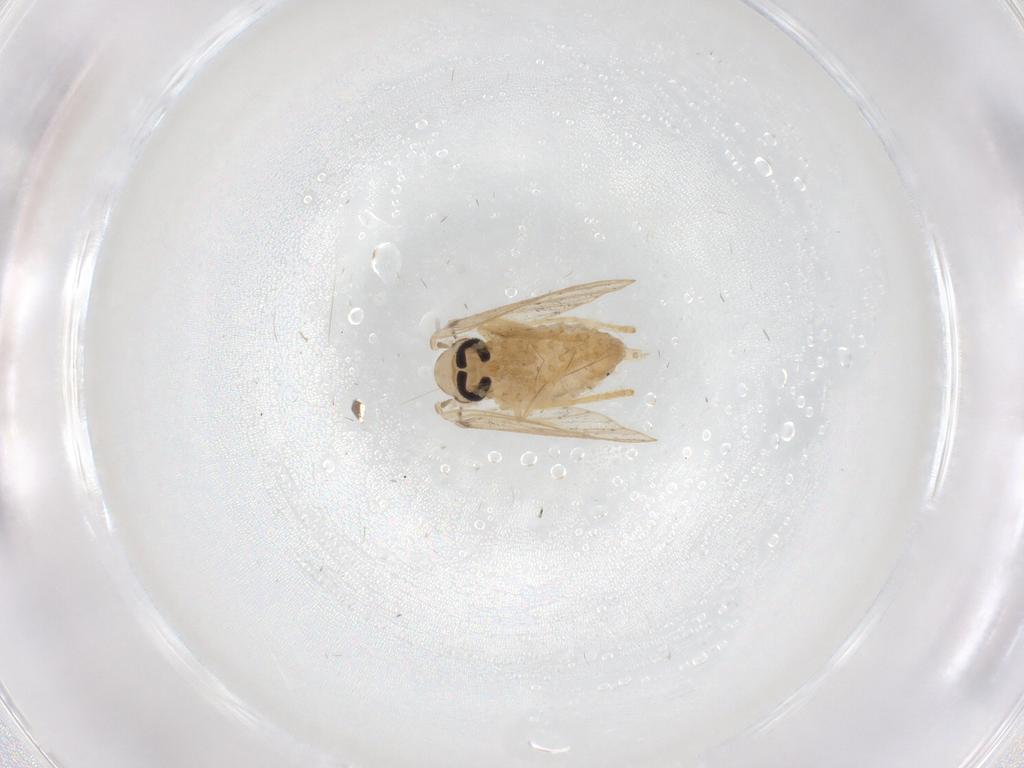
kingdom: Animalia
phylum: Arthropoda
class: Insecta
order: Diptera
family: Psychodidae
